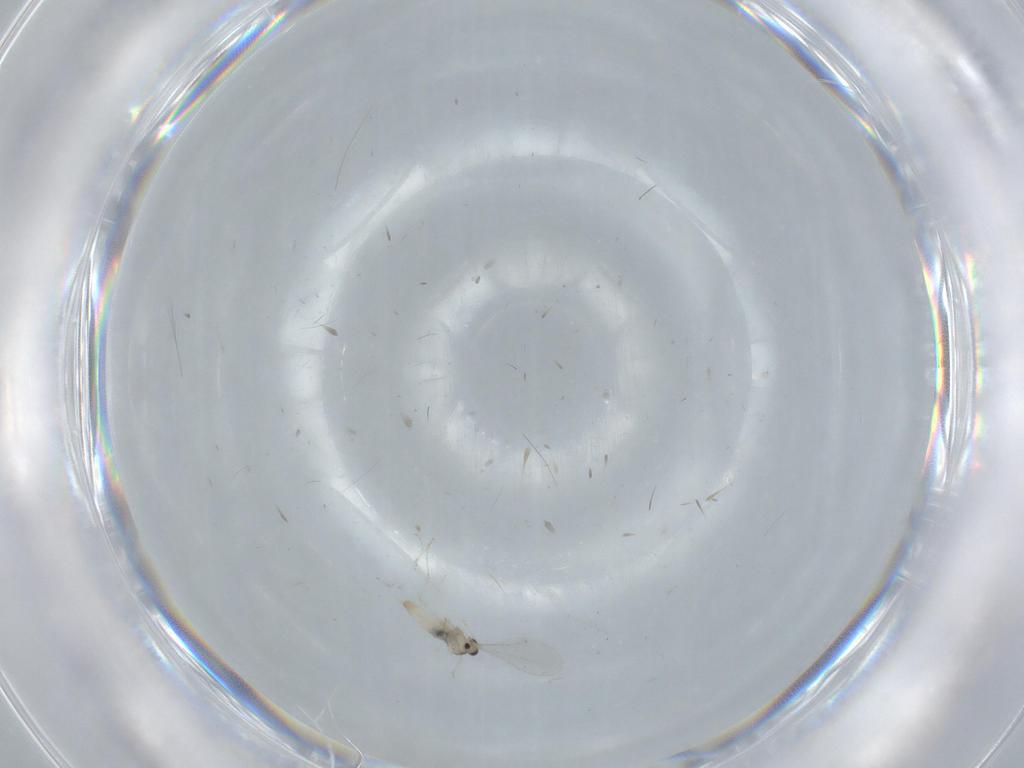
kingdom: Animalia
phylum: Arthropoda
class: Insecta
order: Diptera
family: Cecidomyiidae
